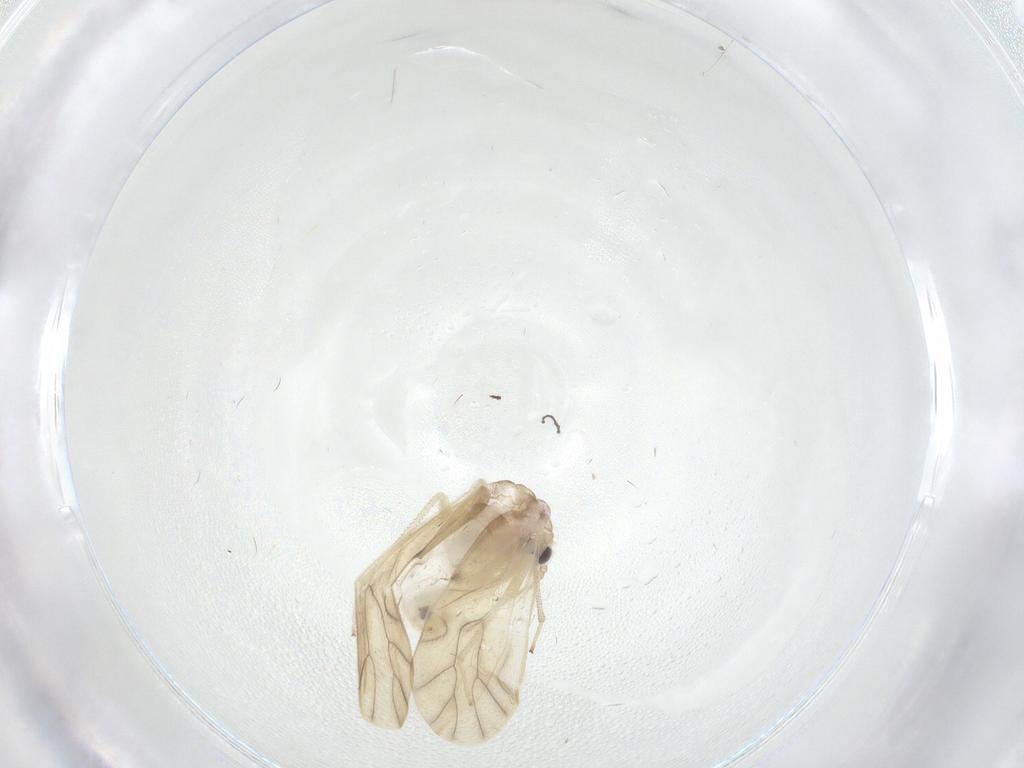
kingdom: Animalia
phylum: Arthropoda
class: Insecta
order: Psocodea
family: Caeciliusidae
